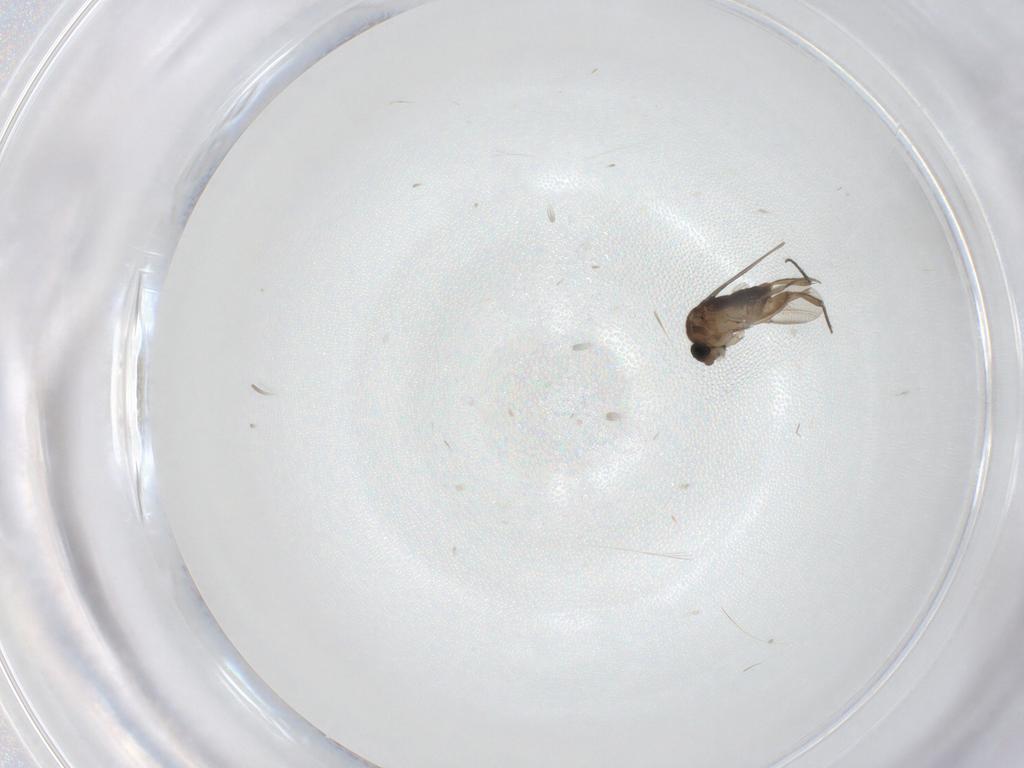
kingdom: Animalia
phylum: Arthropoda
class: Insecta
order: Diptera
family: Phoridae
